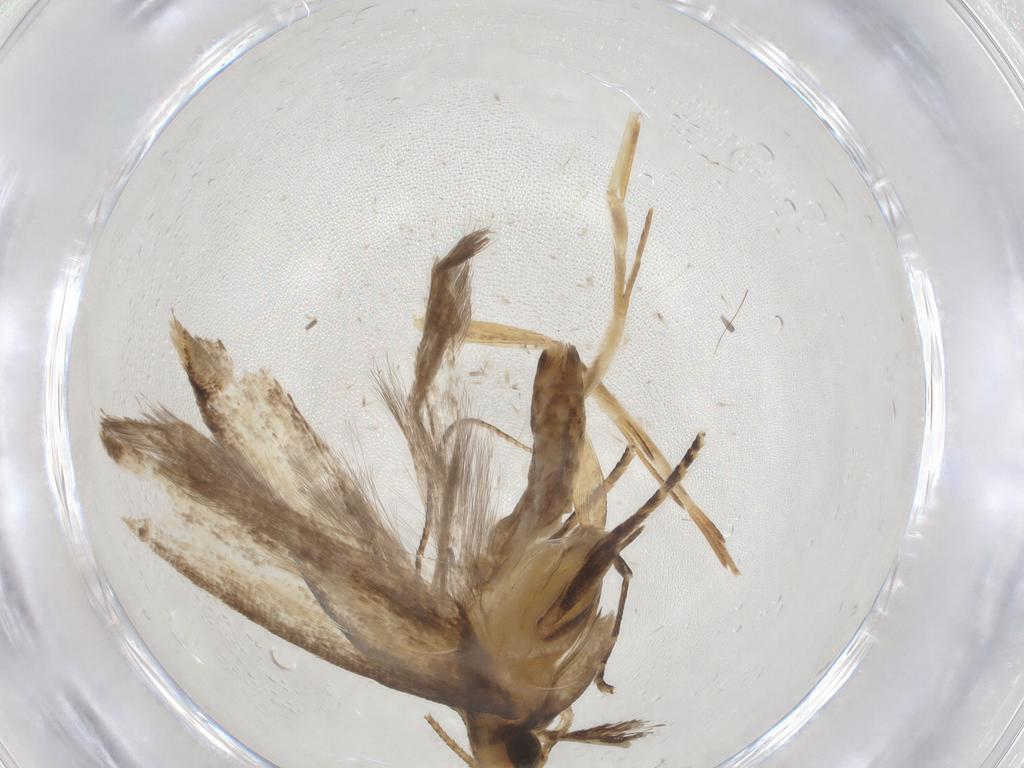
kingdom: Animalia
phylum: Arthropoda
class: Insecta
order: Lepidoptera
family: Gelechiidae
